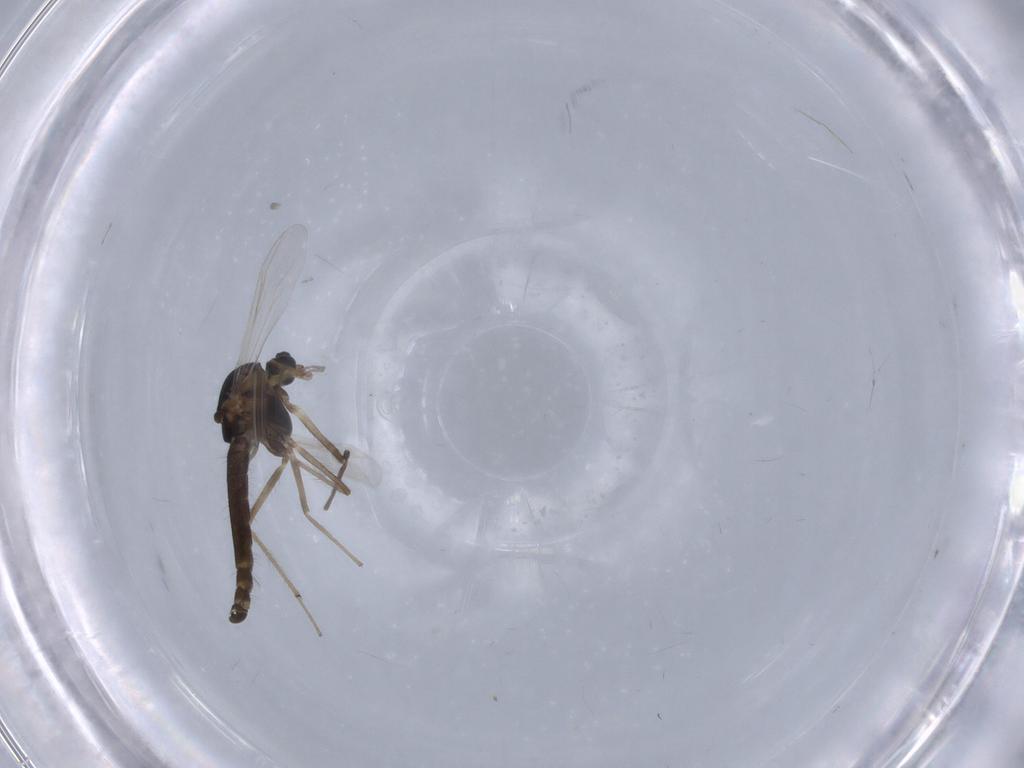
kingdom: Animalia
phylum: Arthropoda
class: Insecta
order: Diptera
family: Chironomidae
